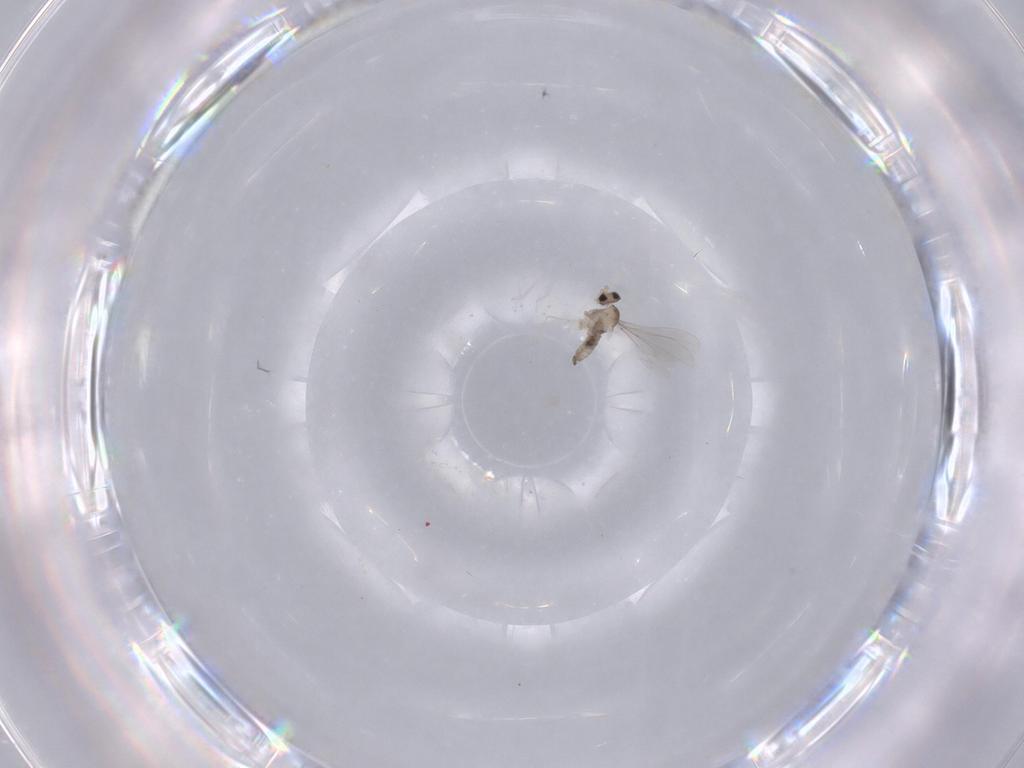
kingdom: Animalia
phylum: Arthropoda
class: Insecta
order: Diptera
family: Cecidomyiidae
